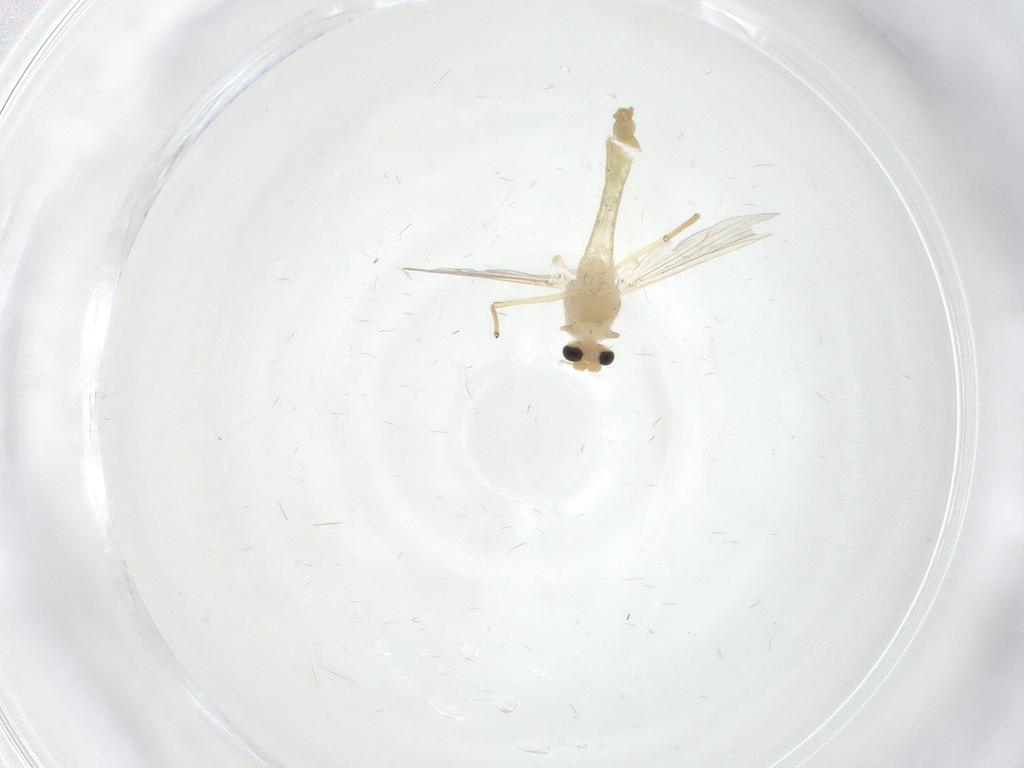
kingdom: Animalia
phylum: Arthropoda
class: Insecta
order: Diptera
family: Chironomidae
